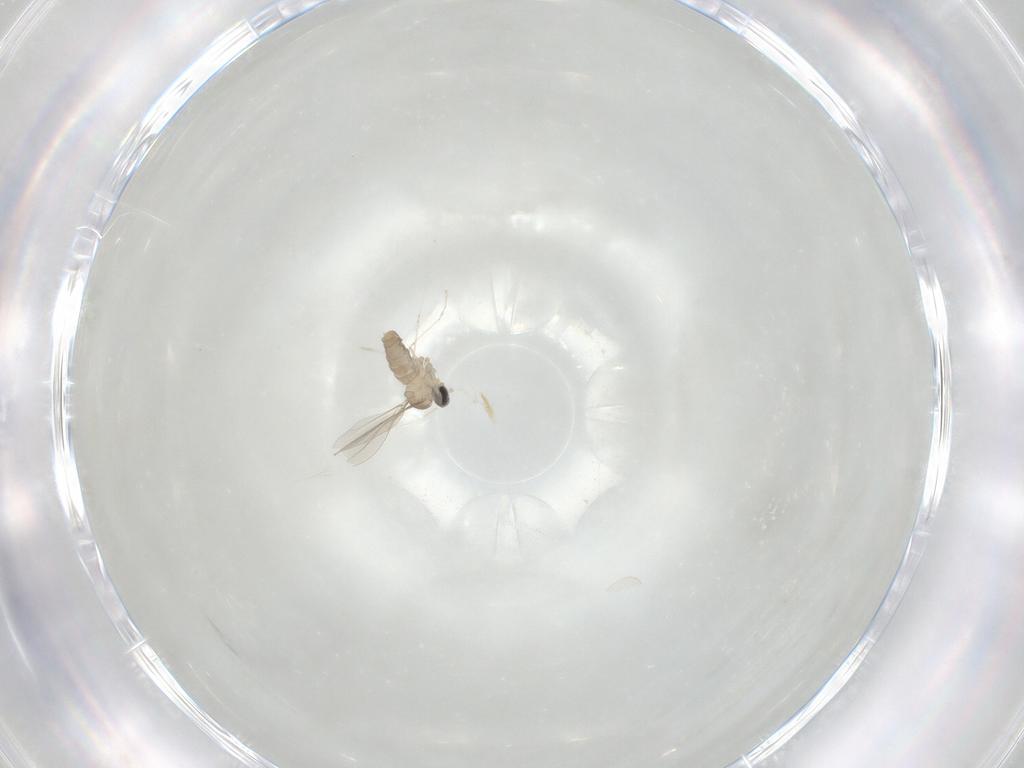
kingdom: Animalia
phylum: Arthropoda
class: Insecta
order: Diptera
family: Cecidomyiidae
